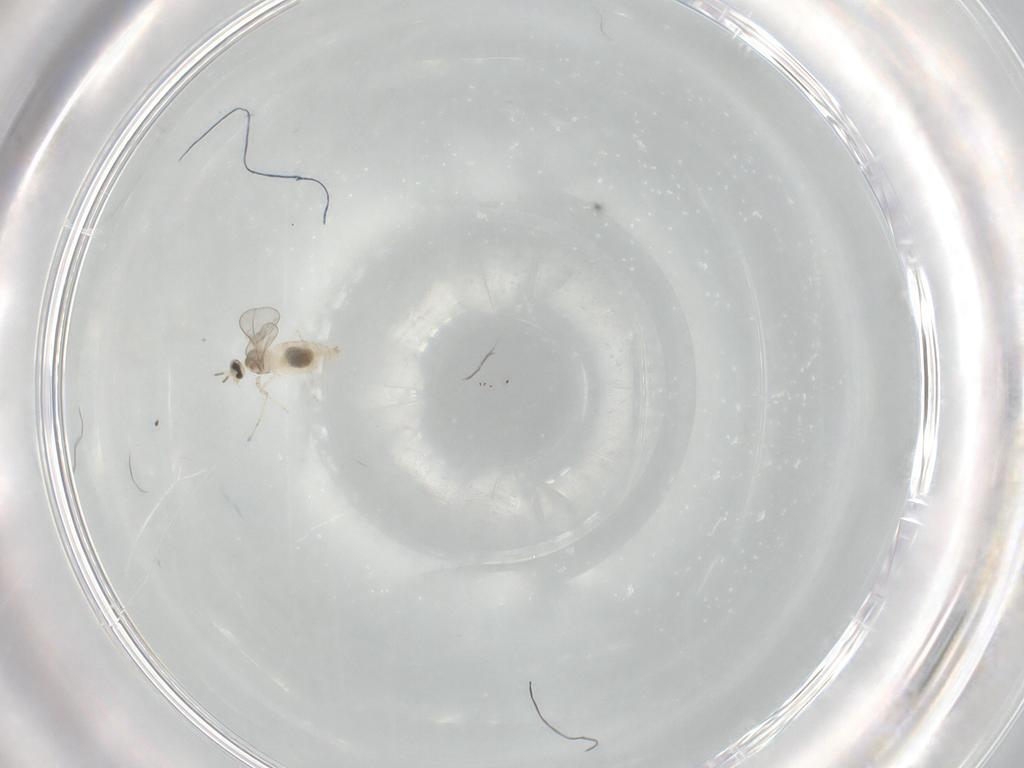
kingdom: Animalia
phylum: Arthropoda
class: Insecta
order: Diptera
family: Cecidomyiidae
